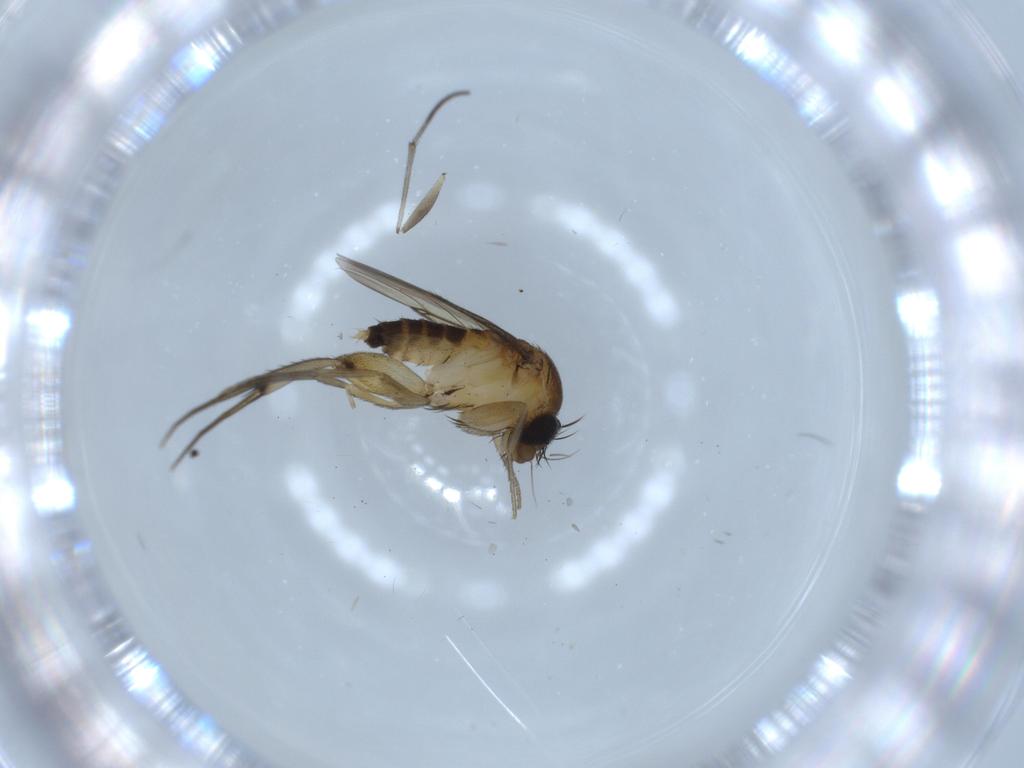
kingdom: Animalia
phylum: Arthropoda
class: Insecta
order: Diptera
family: Phoridae
